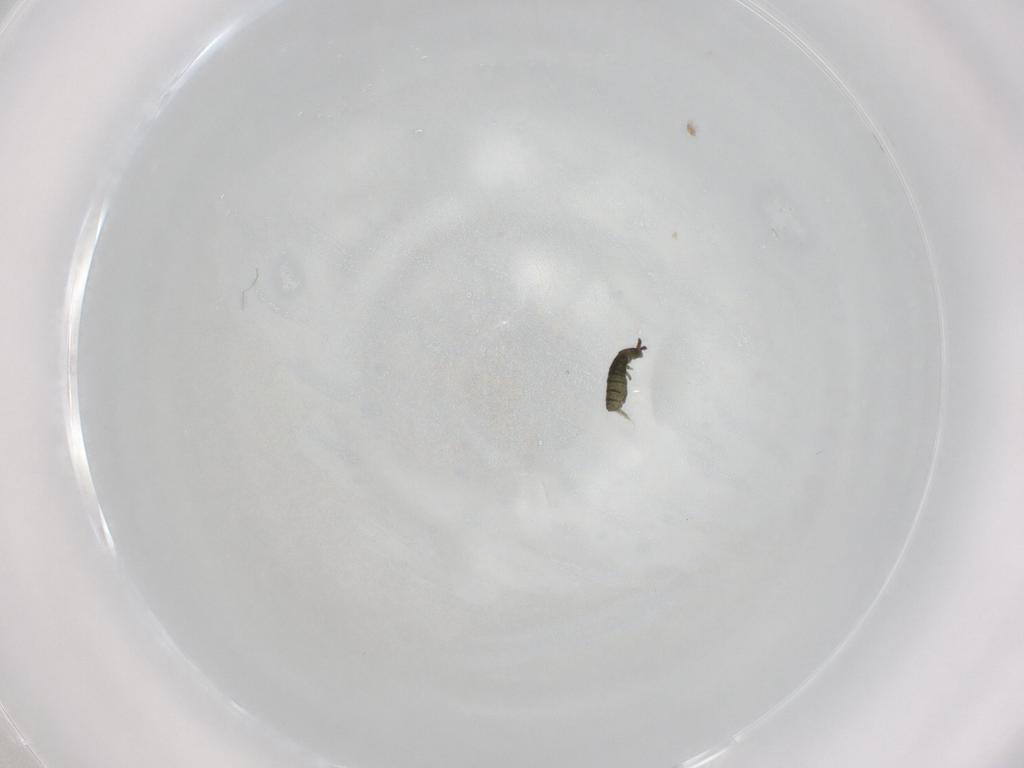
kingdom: Animalia
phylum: Arthropoda
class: Collembola
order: Entomobryomorpha
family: Isotomidae
